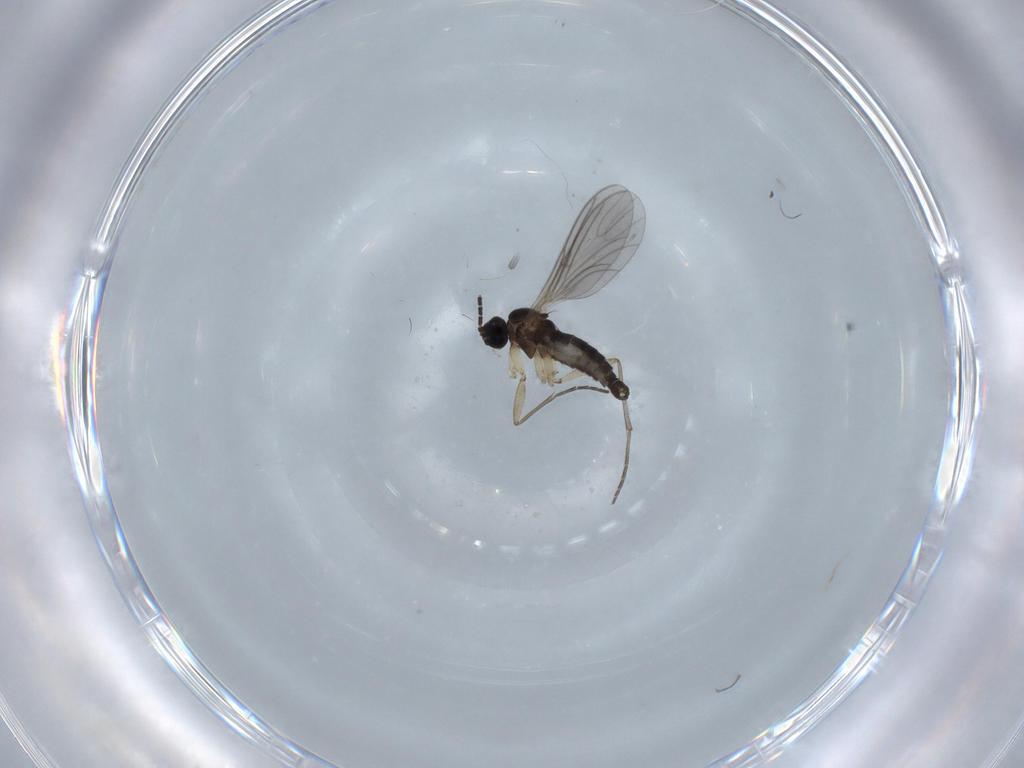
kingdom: Animalia
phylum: Arthropoda
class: Insecta
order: Diptera
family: Sciaridae
